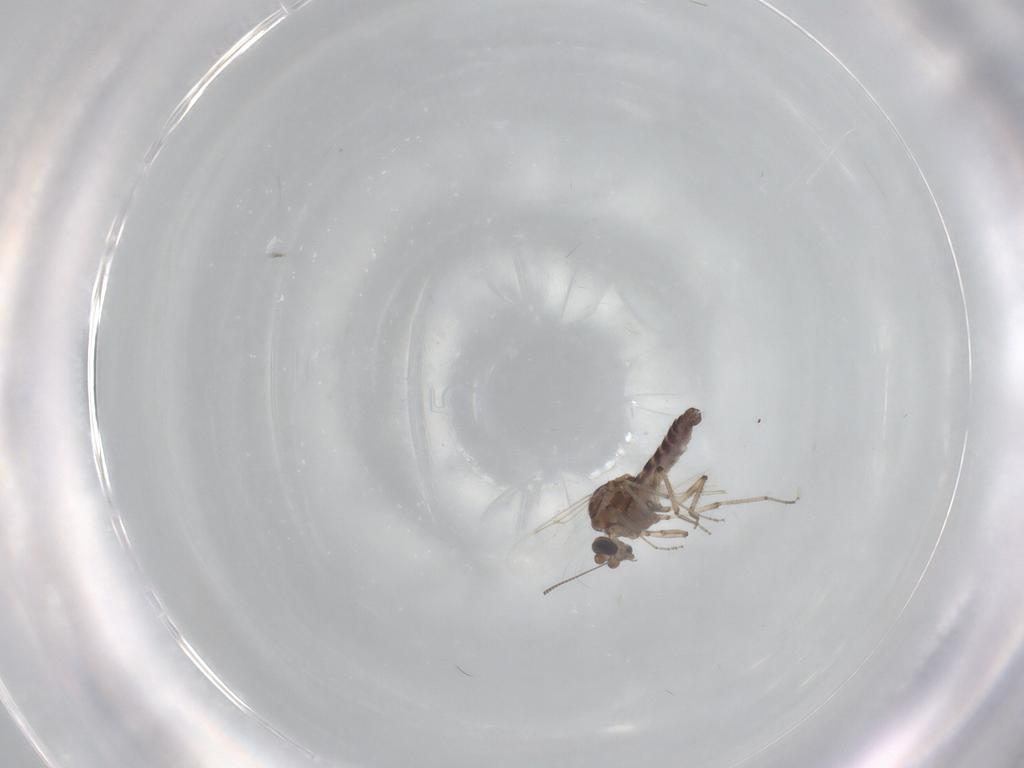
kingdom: Animalia
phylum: Arthropoda
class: Insecta
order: Diptera
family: Ceratopogonidae
